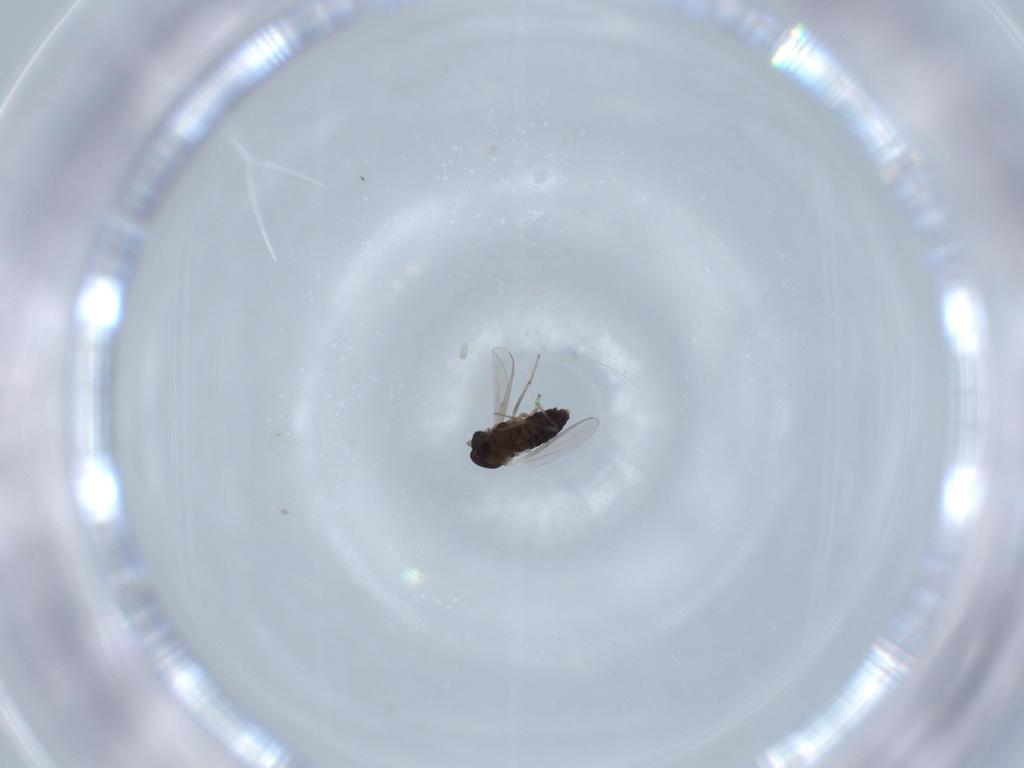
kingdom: Animalia
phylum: Arthropoda
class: Insecta
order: Diptera
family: Chironomidae
